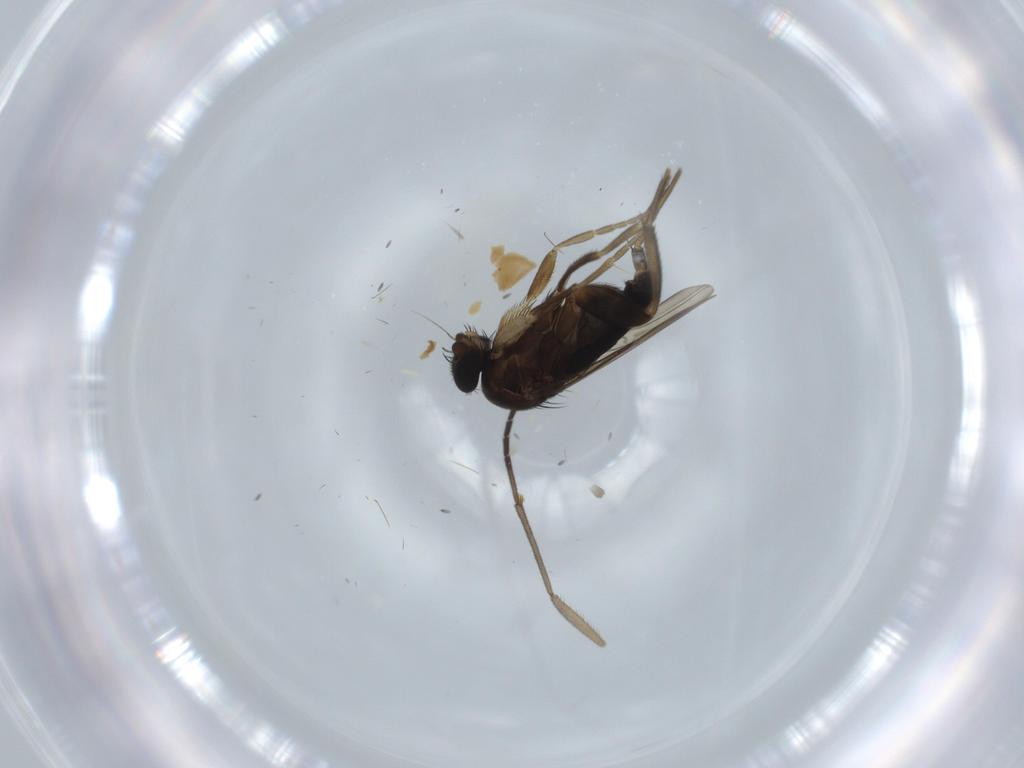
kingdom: Animalia
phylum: Arthropoda
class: Insecta
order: Diptera
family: Phoridae
